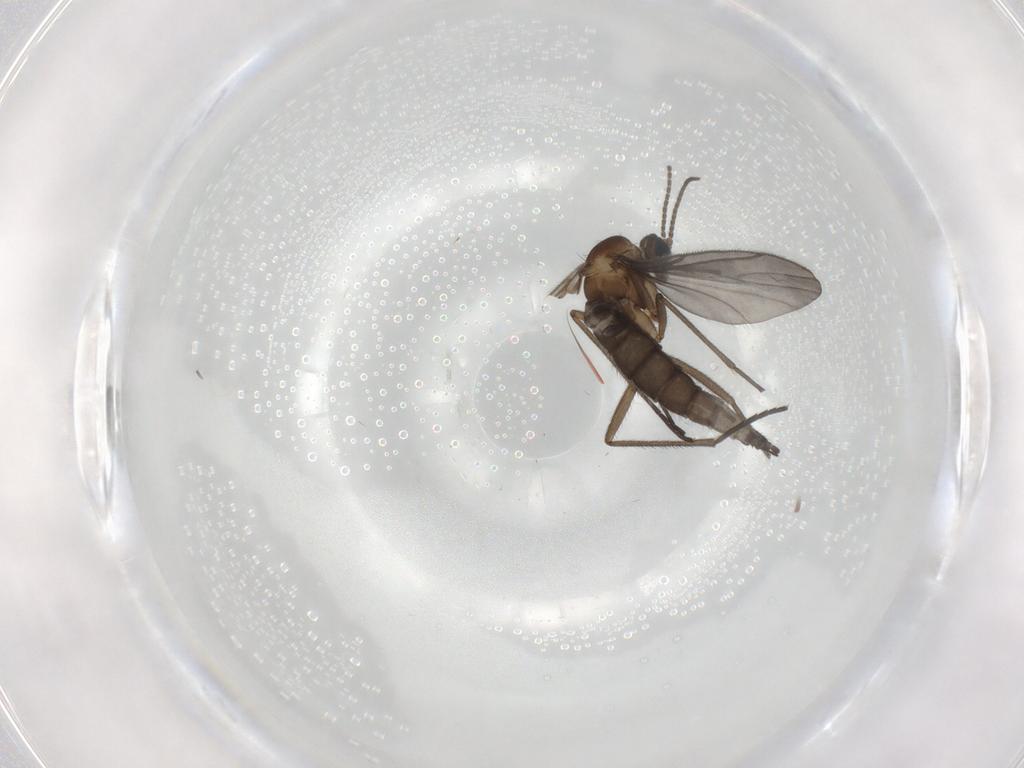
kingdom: Animalia
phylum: Arthropoda
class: Insecta
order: Diptera
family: Sciaridae
